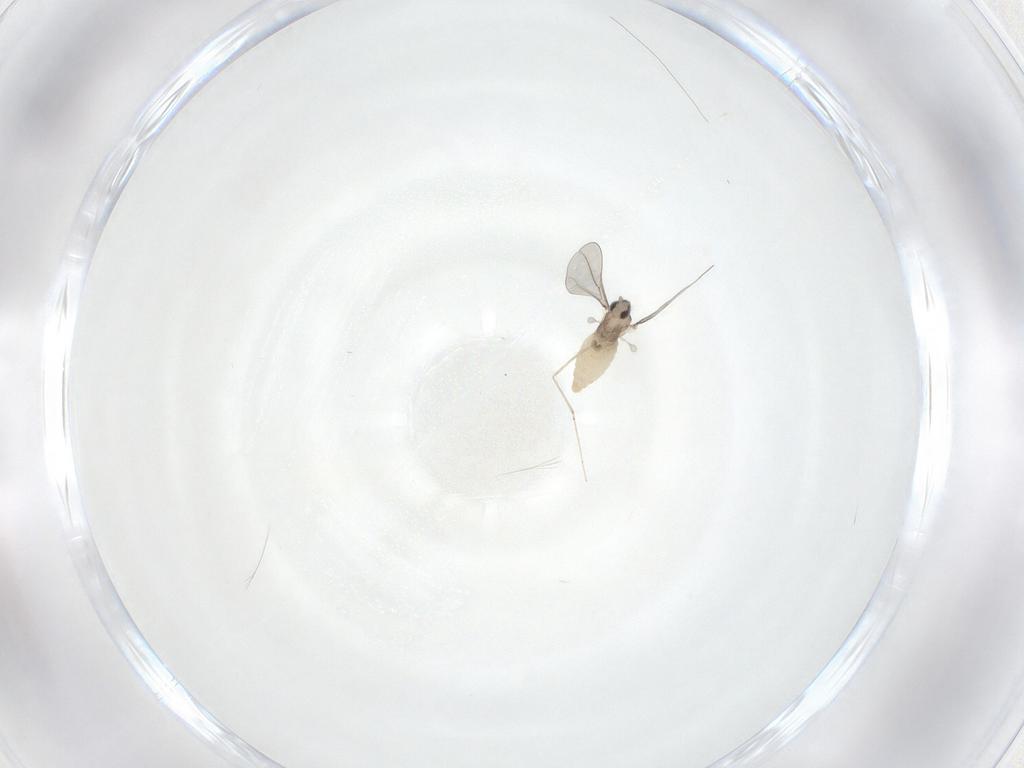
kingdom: Animalia
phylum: Arthropoda
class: Insecta
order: Diptera
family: Cecidomyiidae
